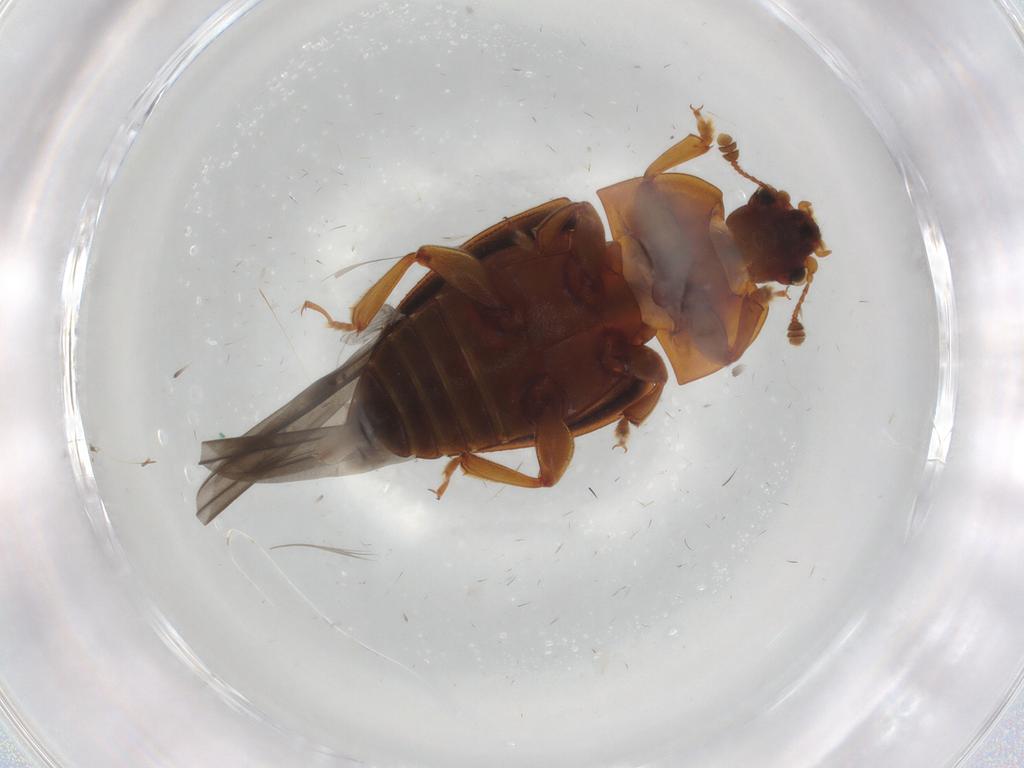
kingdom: Animalia
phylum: Arthropoda
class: Insecta
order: Coleoptera
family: Nitidulidae
